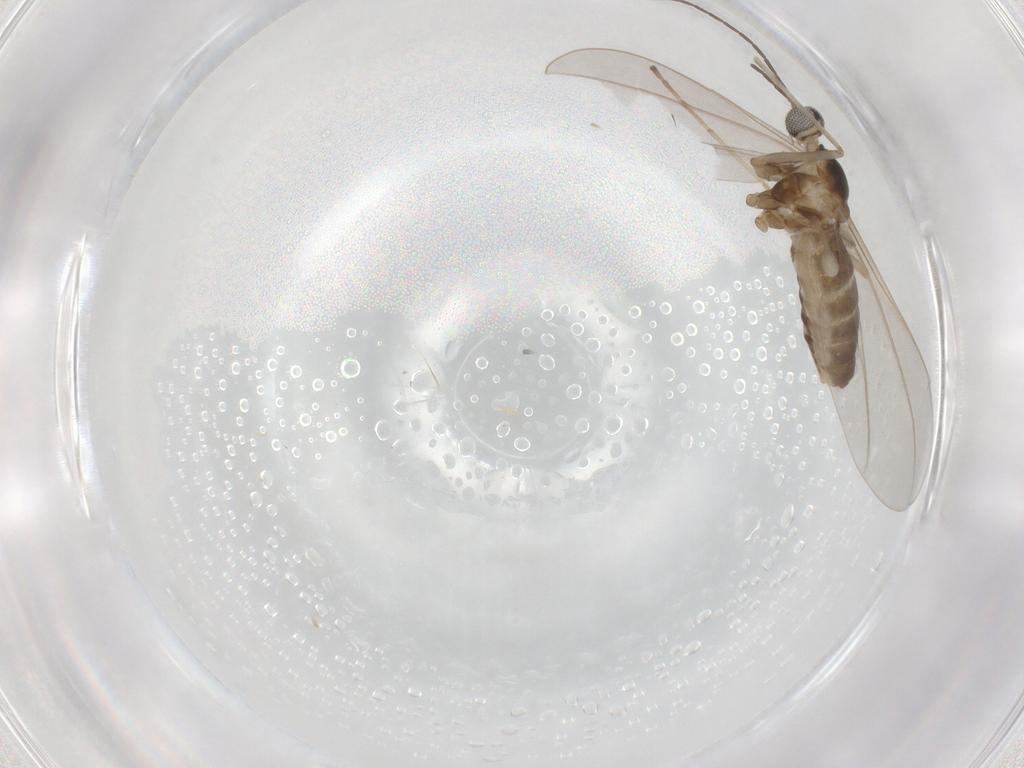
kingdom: Animalia
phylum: Arthropoda
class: Insecta
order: Diptera
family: Cecidomyiidae
